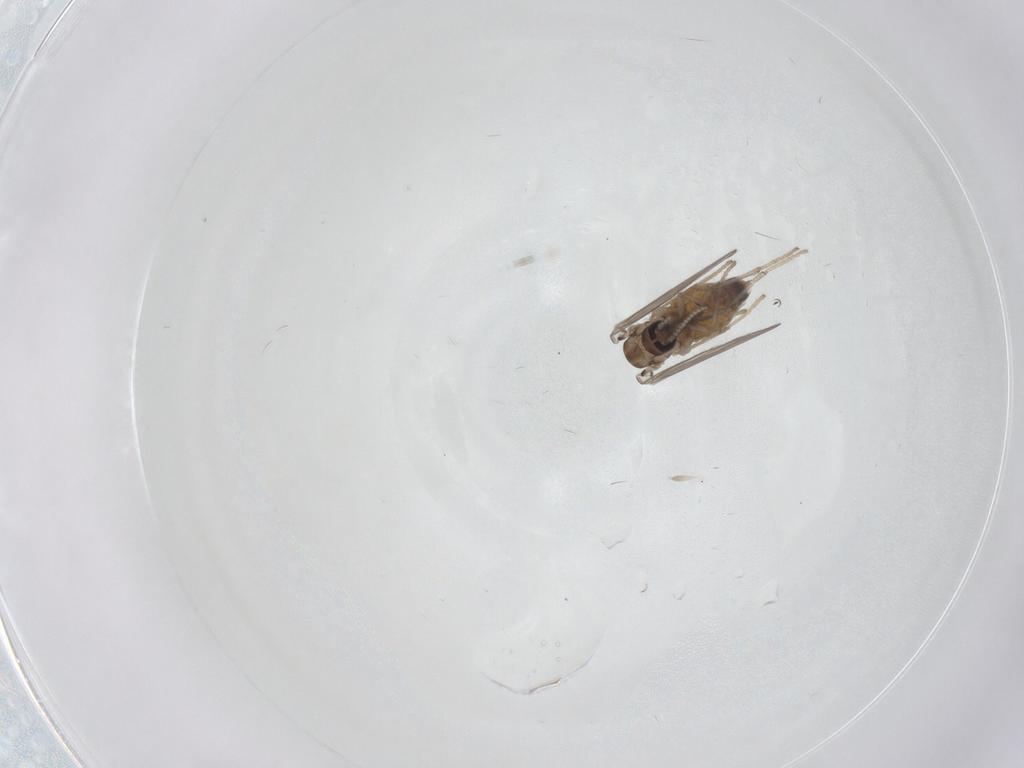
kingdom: Animalia
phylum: Arthropoda
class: Insecta
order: Diptera
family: Psychodidae
